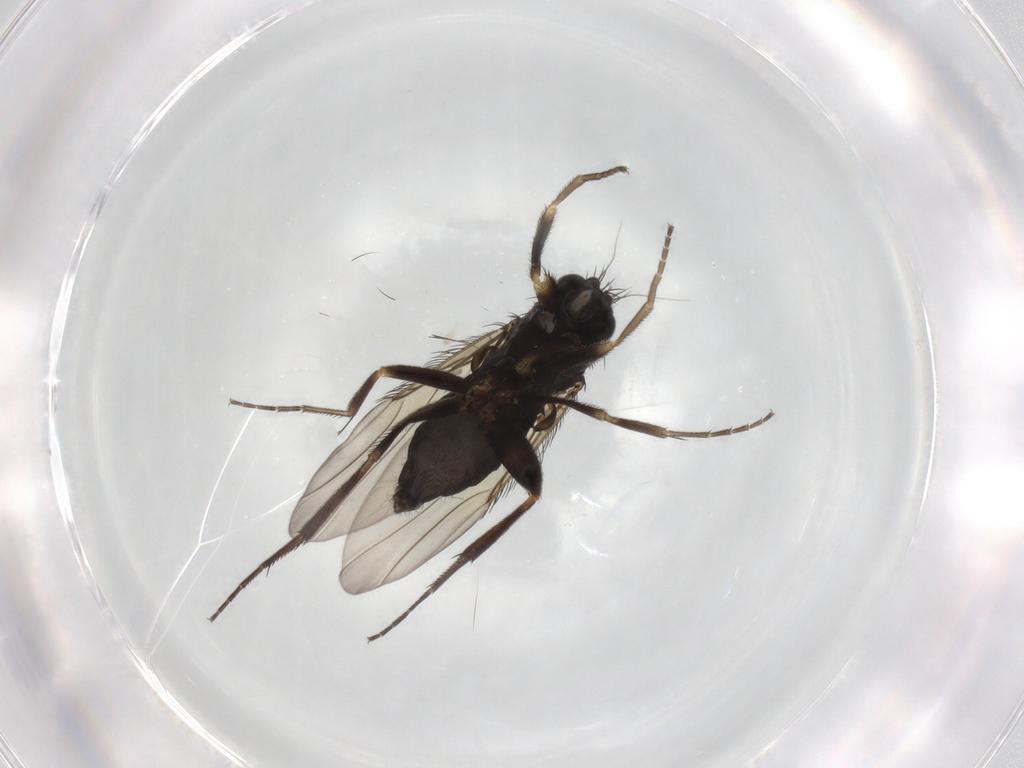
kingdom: Animalia
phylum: Arthropoda
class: Insecta
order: Diptera
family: Phoridae
